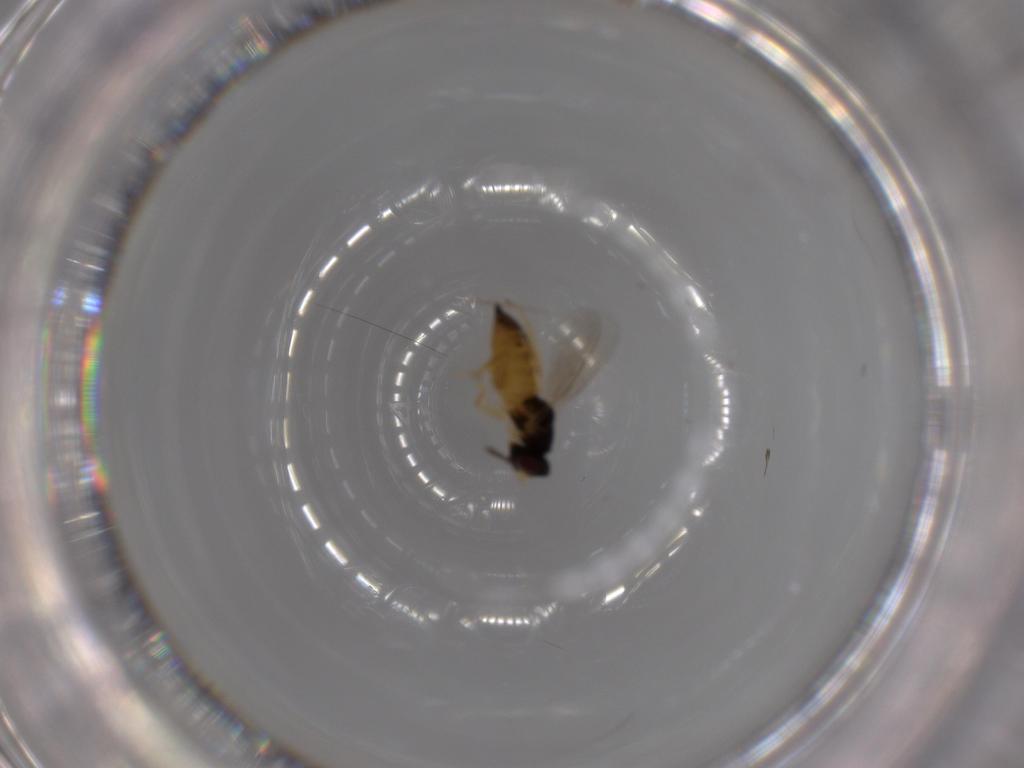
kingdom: Animalia
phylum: Arthropoda
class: Insecta
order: Hymenoptera
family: Eulophidae
